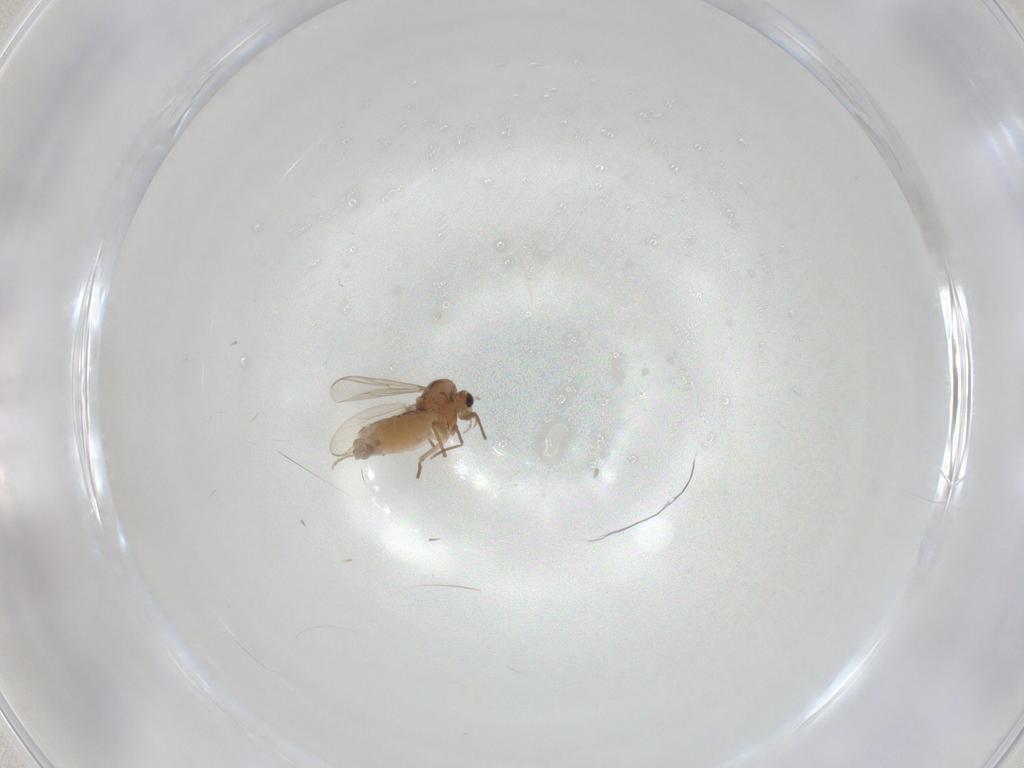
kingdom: Animalia
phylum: Arthropoda
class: Insecta
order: Diptera
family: Chironomidae
